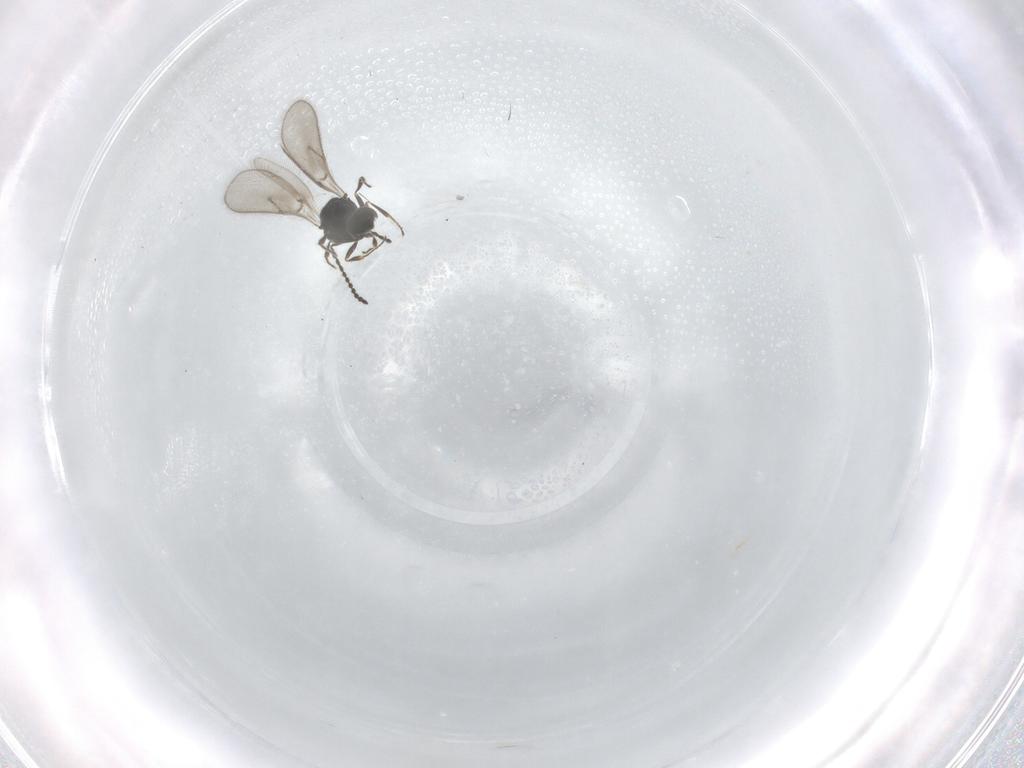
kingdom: Animalia
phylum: Arthropoda
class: Insecta
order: Hymenoptera
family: Scelionidae
